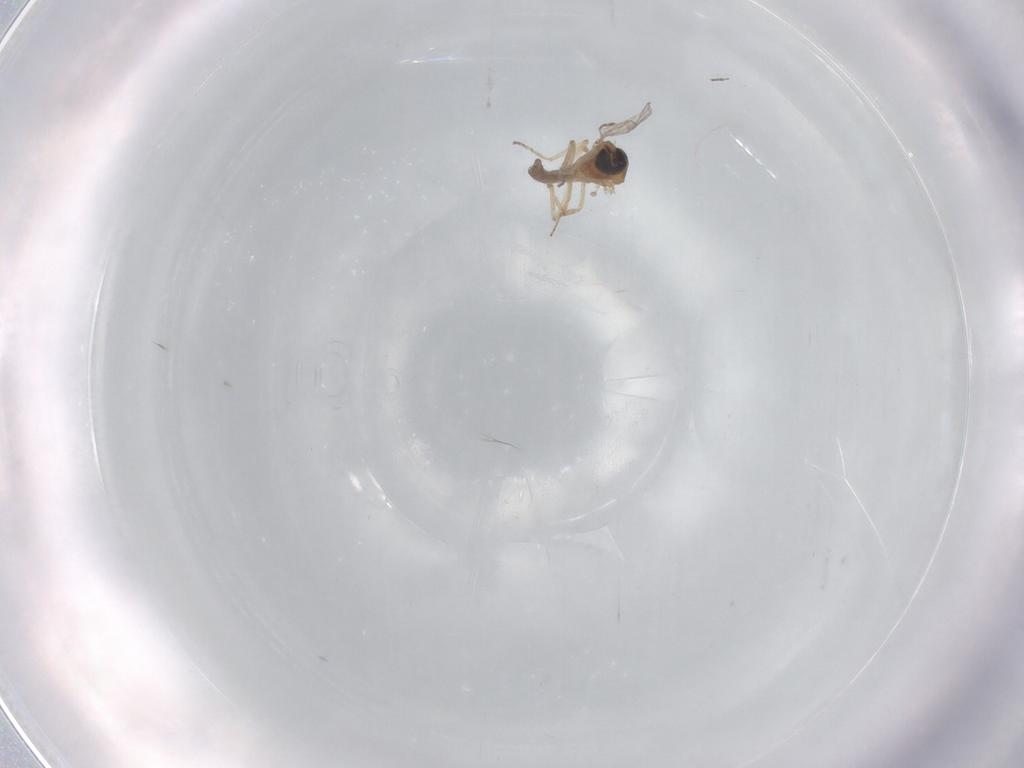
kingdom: Animalia
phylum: Arthropoda
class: Insecta
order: Diptera
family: Ceratopogonidae
